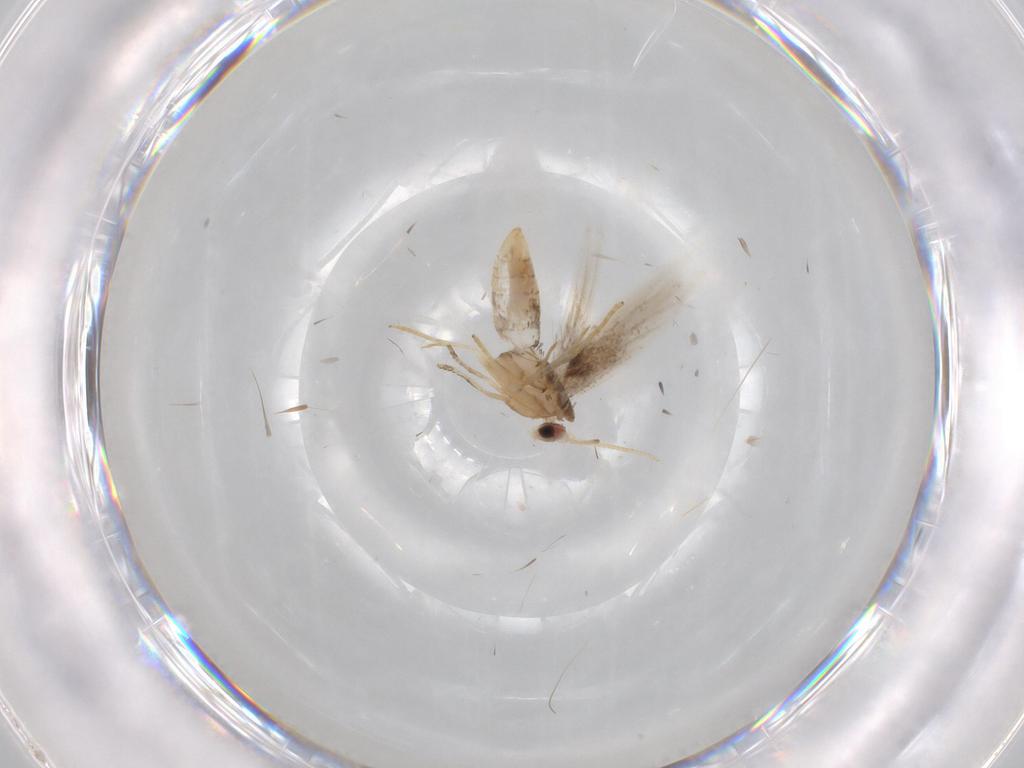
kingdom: Animalia
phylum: Arthropoda
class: Insecta
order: Lepidoptera
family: Nepticulidae
